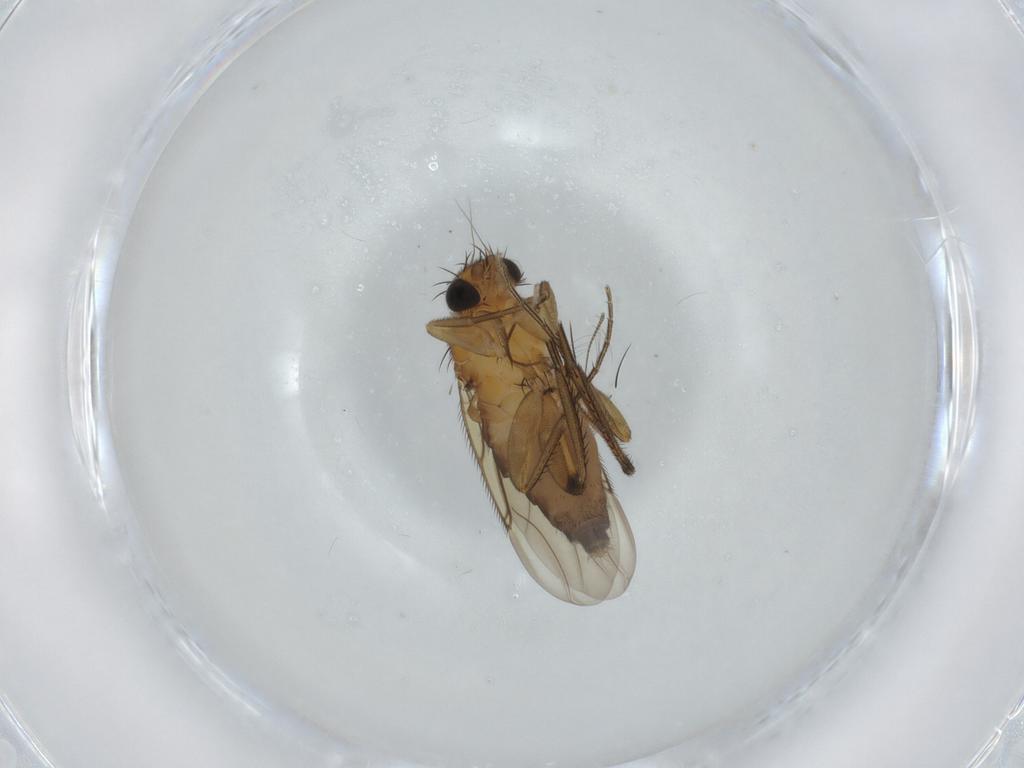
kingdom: Animalia
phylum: Arthropoda
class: Insecta
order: Diptera
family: Phoridae
